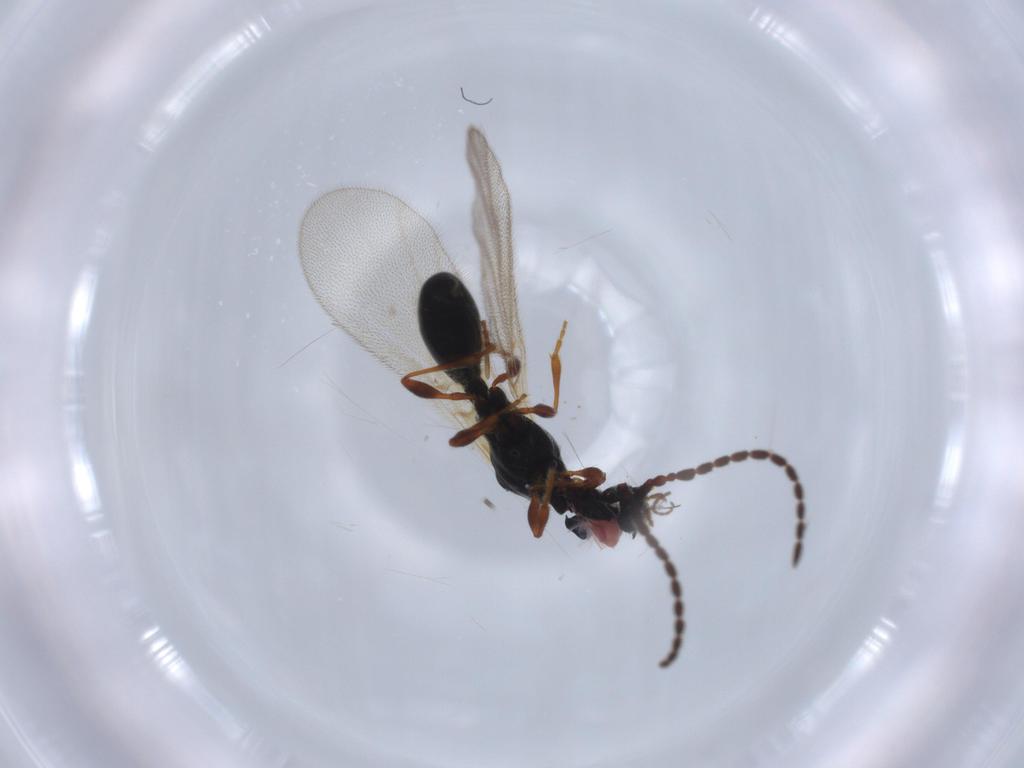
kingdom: Animalia
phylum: Arthropoda
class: Insecta
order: Hymenoptera
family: Diapriidae
